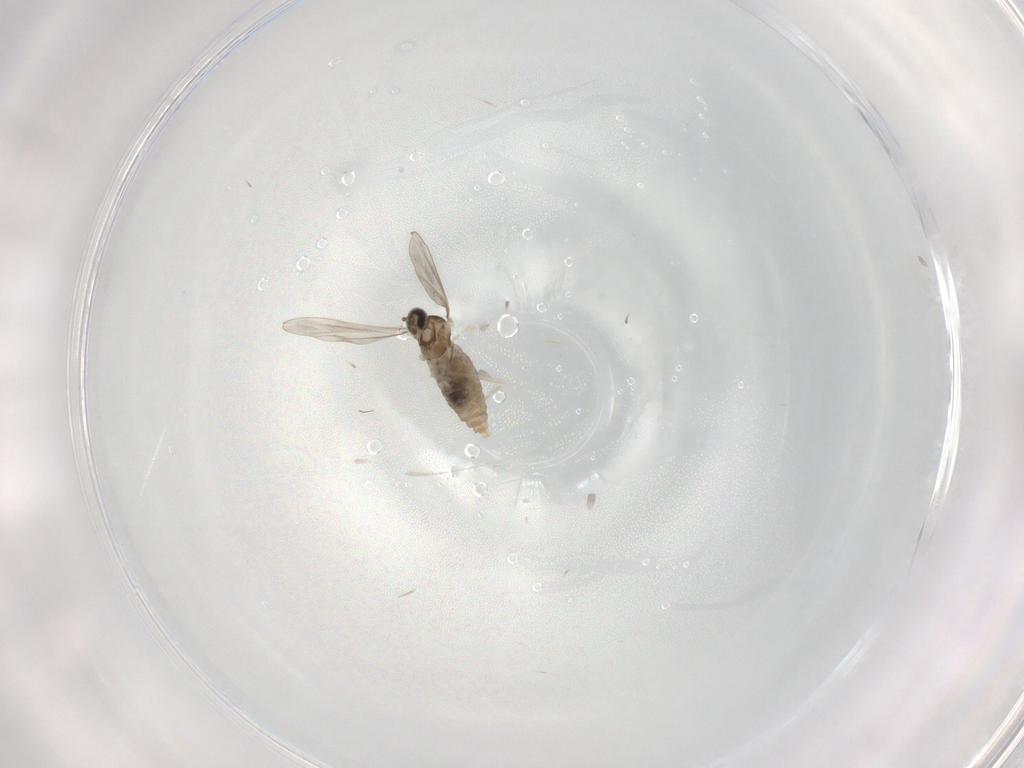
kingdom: Animalia
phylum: Arthropoda
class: Insecta
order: Diptera
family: Cecidomyiidae
